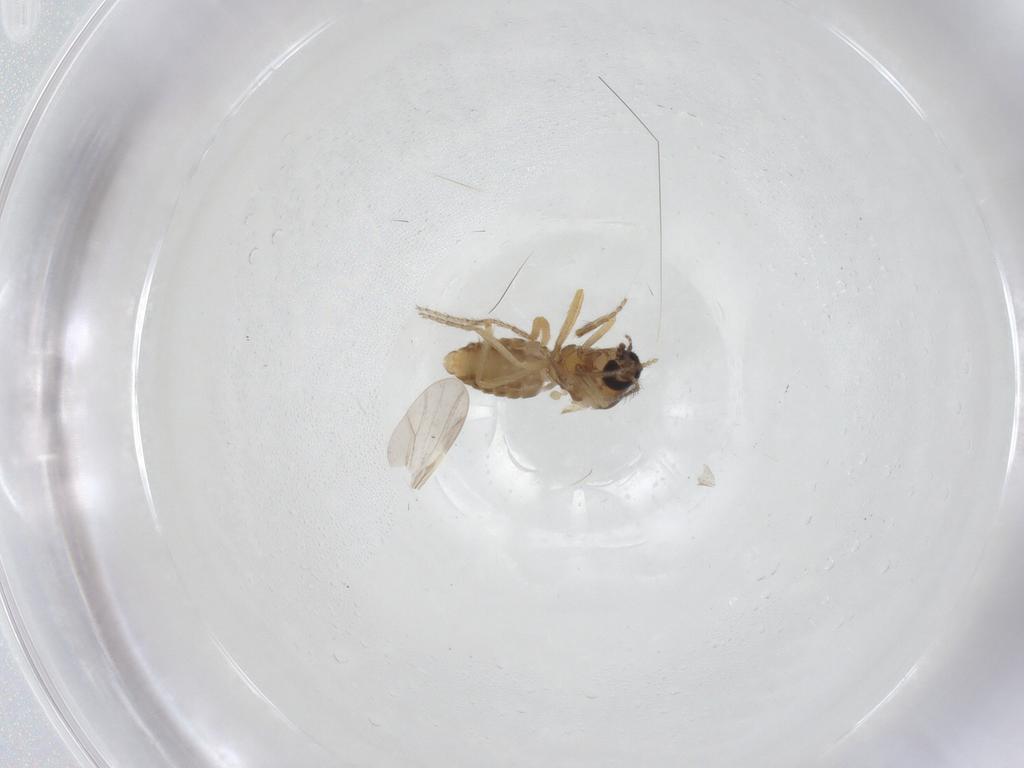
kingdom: Animalia
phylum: Arthropoda
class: Insecta
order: Diptera
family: Ceratopogonidae
